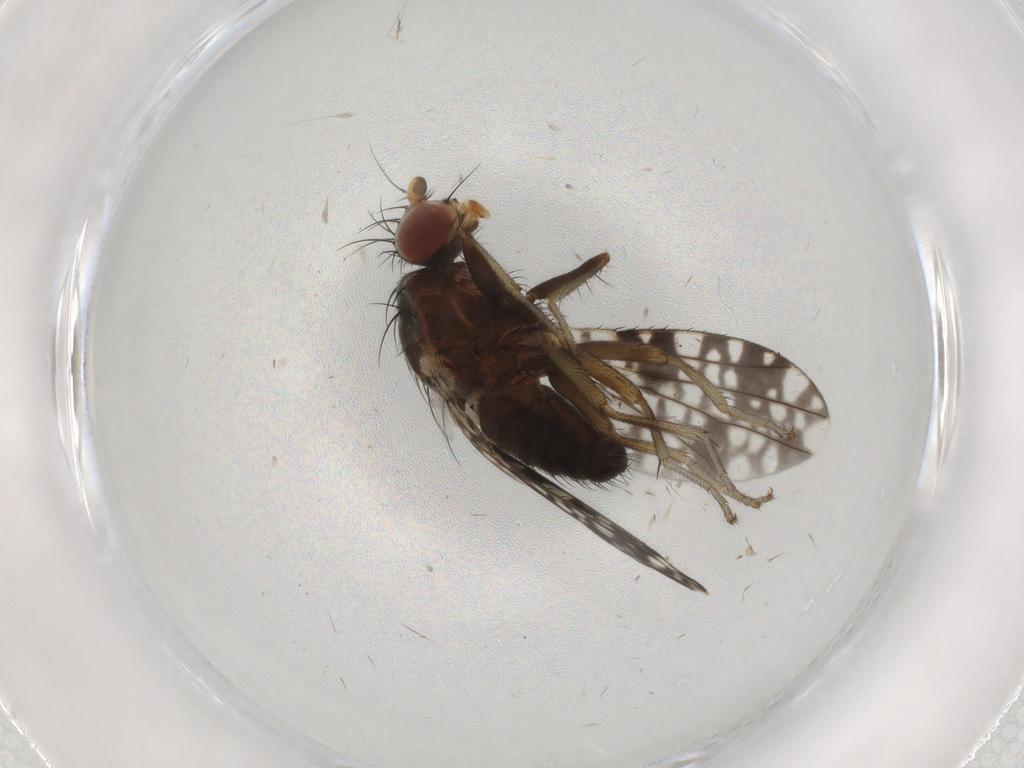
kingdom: Animalia
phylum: Arthropoda
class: Insecta
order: Diptera
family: Tephritidae
